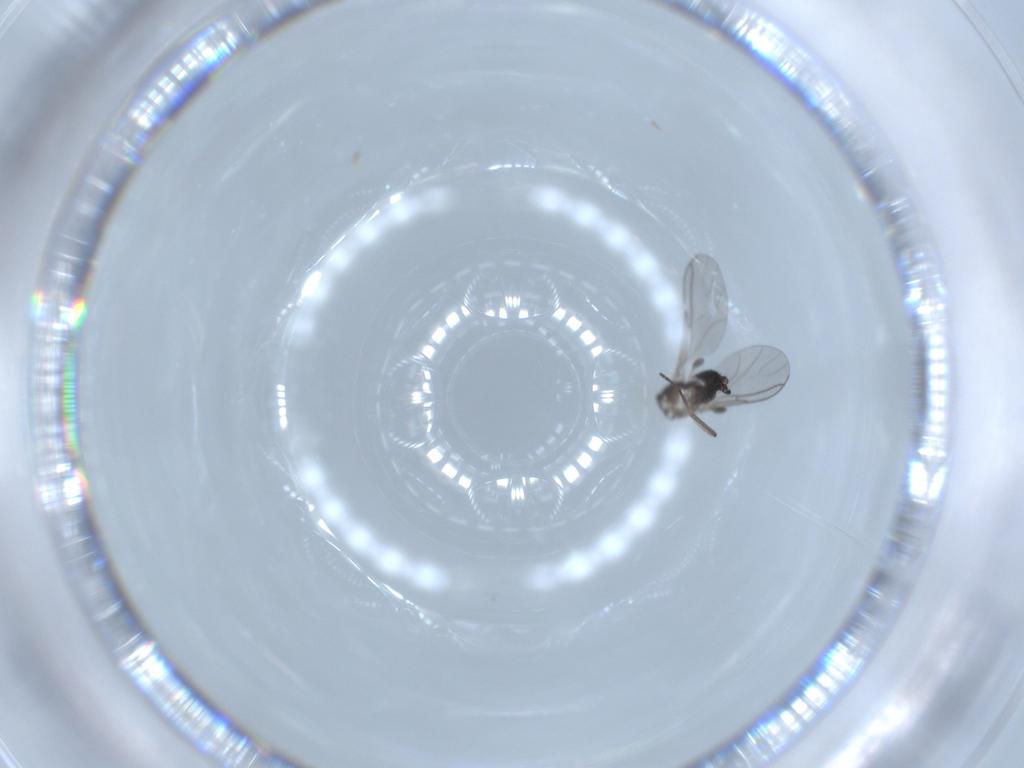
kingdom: Animalia
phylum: Arthropoda
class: Insecta
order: Diptera
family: Sciaridae
